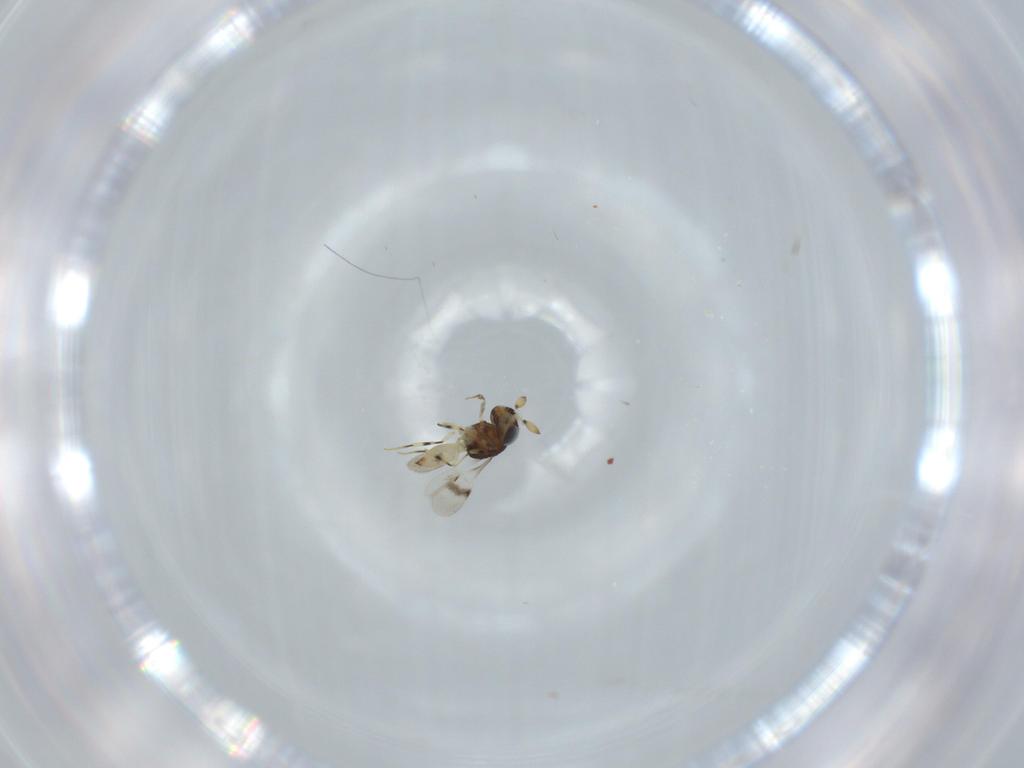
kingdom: Animalia
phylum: Arthropoda
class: Insecta
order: Hymenoptera
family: Scelionidae
